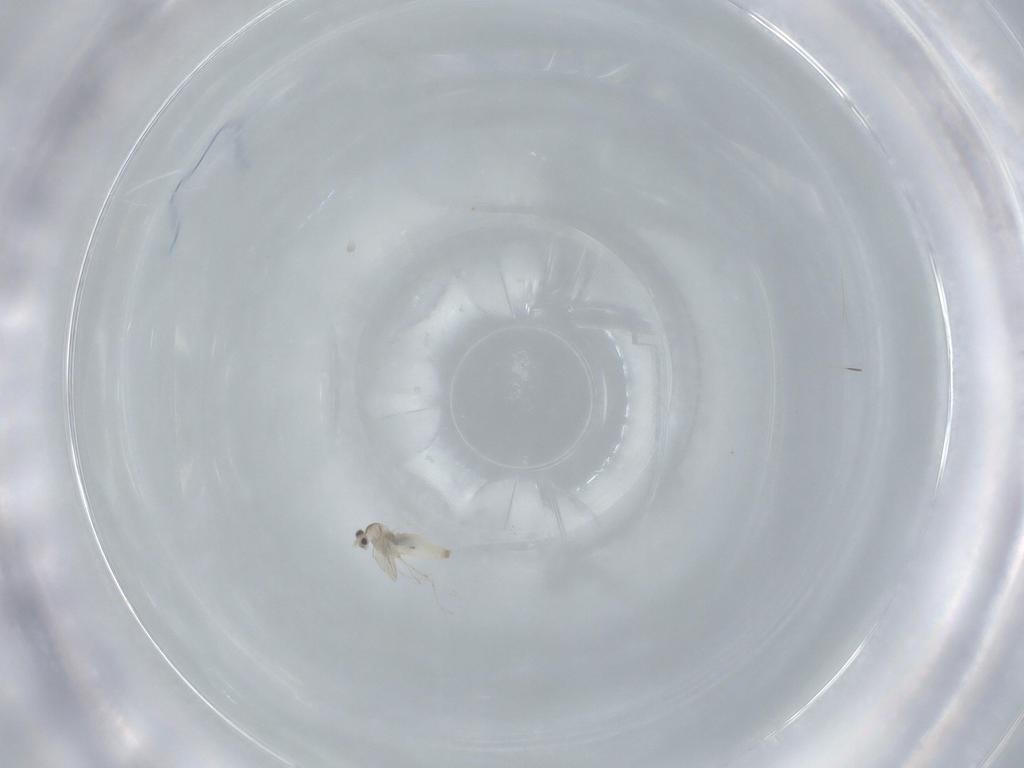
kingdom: Animalia
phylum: Arthropoda
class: Insecta
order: Diptera
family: Cecidomyiidae
